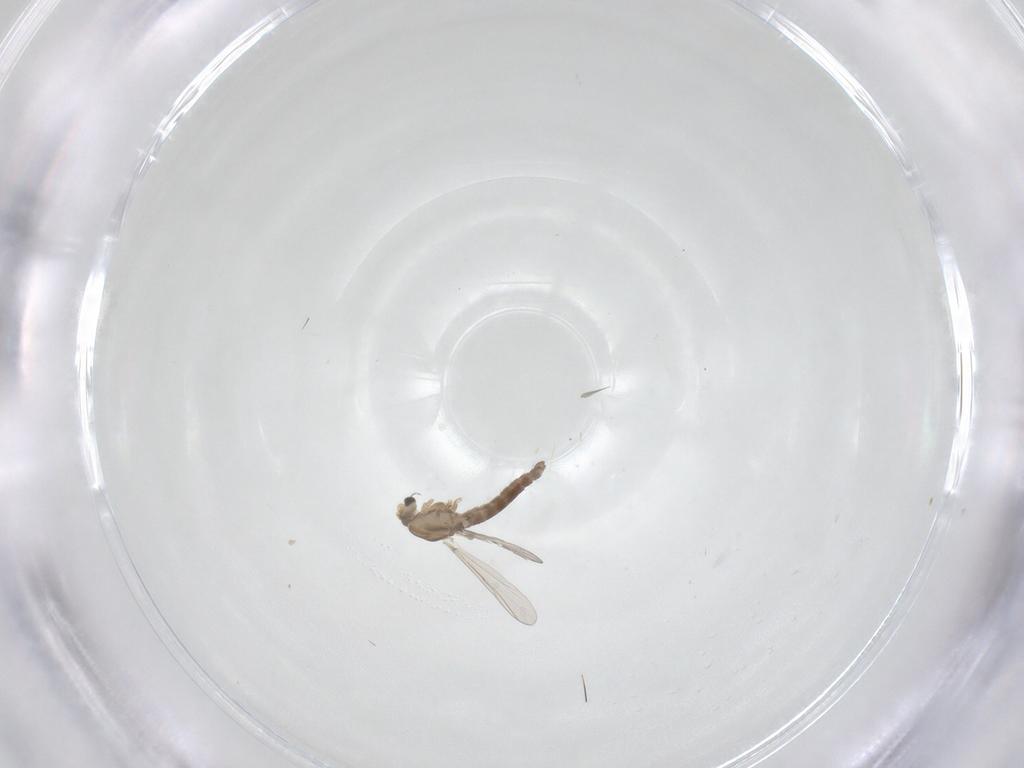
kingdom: Animalia
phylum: Arthropoda
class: Insecta
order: Diptera
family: Chironomidae
